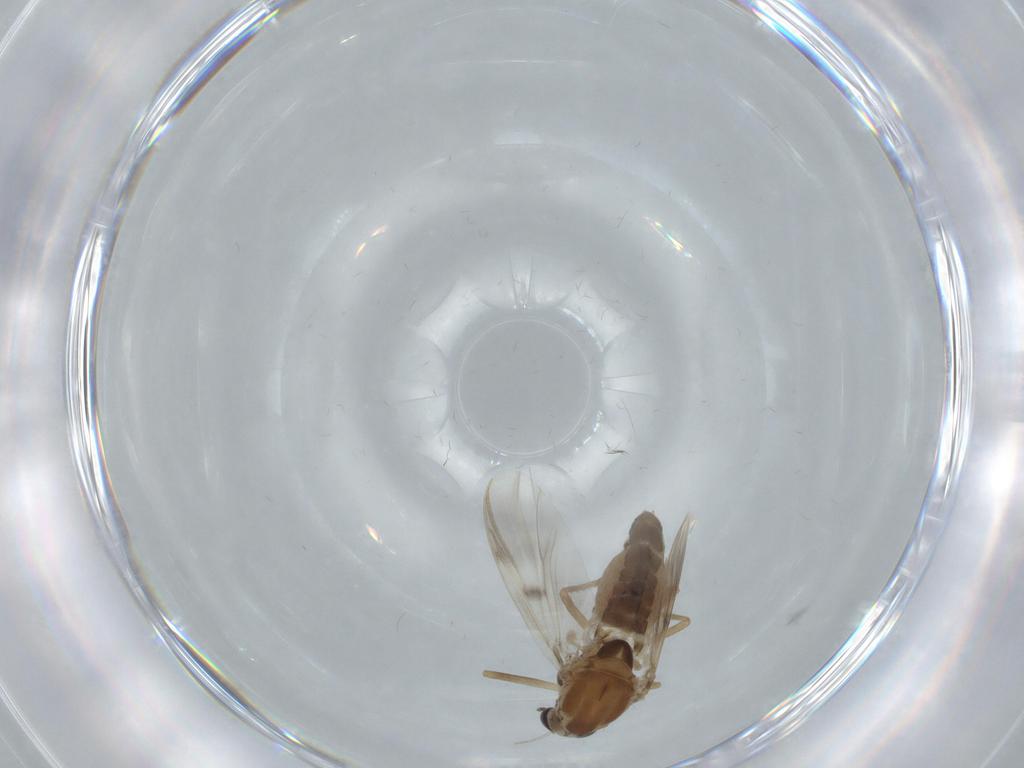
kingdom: Animalia
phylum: Arthropoda
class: Insecta
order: Diptera
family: Chironomidae
